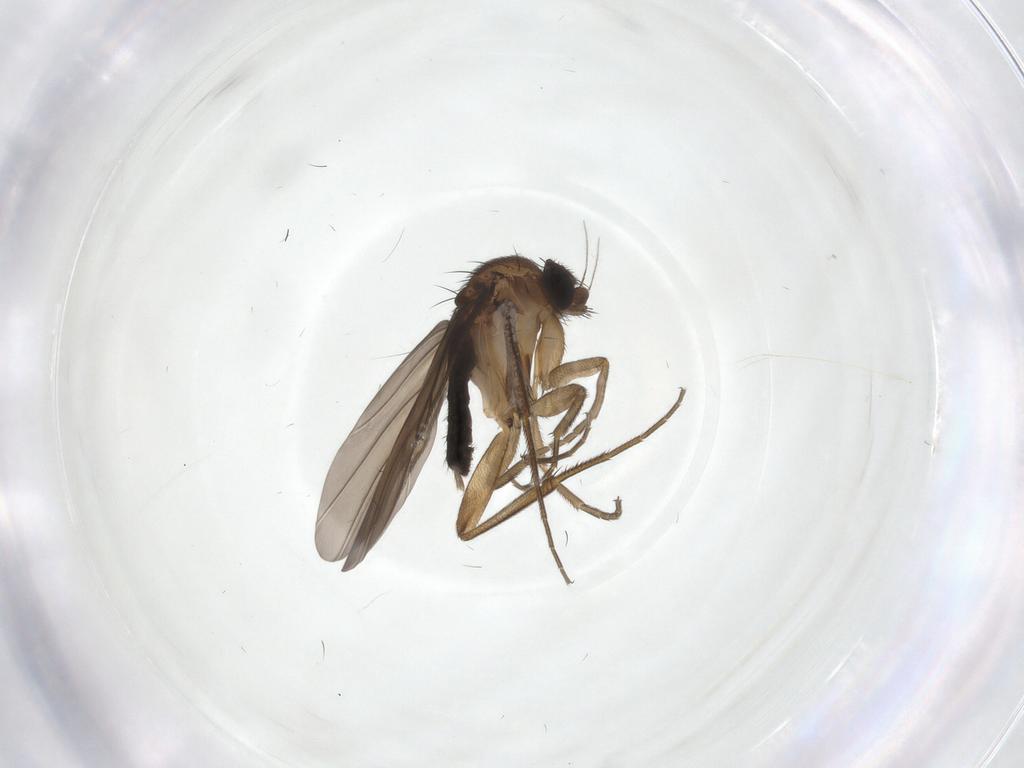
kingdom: Animalia
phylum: Arthropoda
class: Insecta
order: Diptera
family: Phoridae
